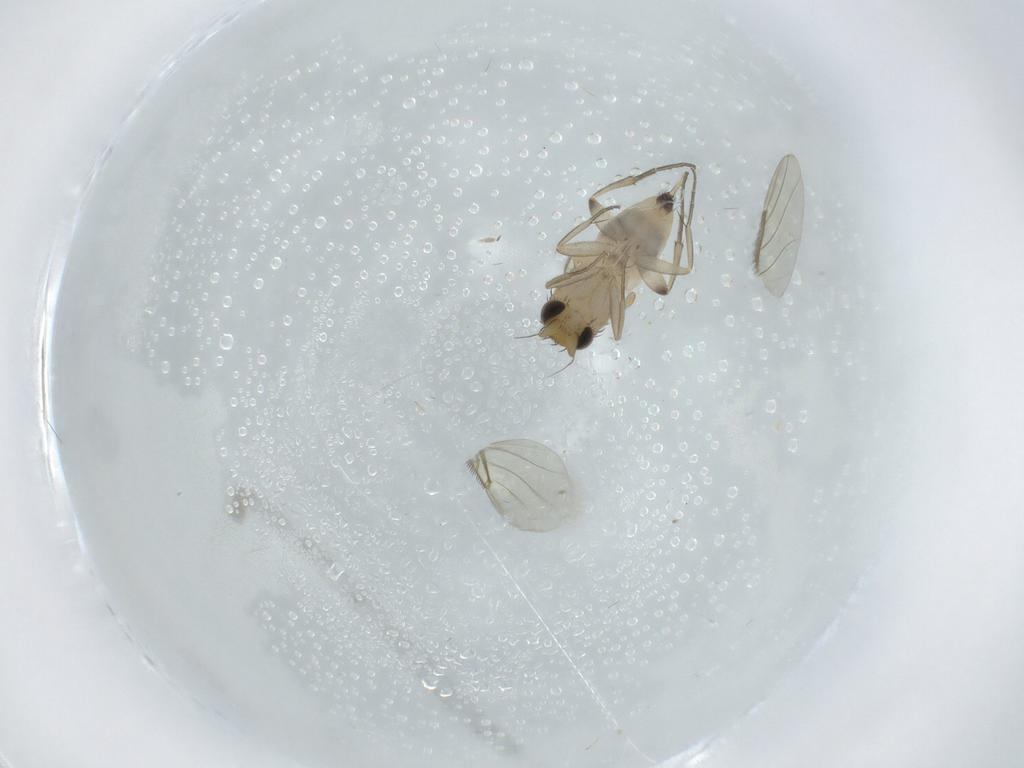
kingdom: Animalia
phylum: Arthropoda
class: Insecta
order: Diptera
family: Phoridae
